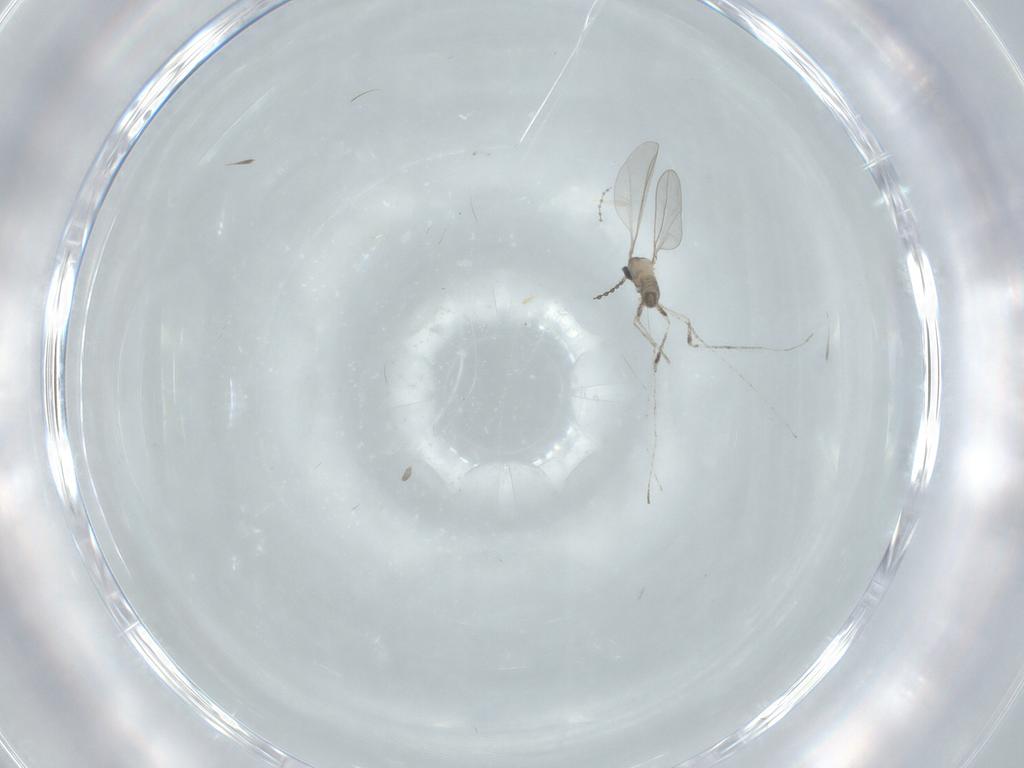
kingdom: Animalia
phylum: Arthropoda
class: Insecta
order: Diptera
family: Cecidomyiidae
